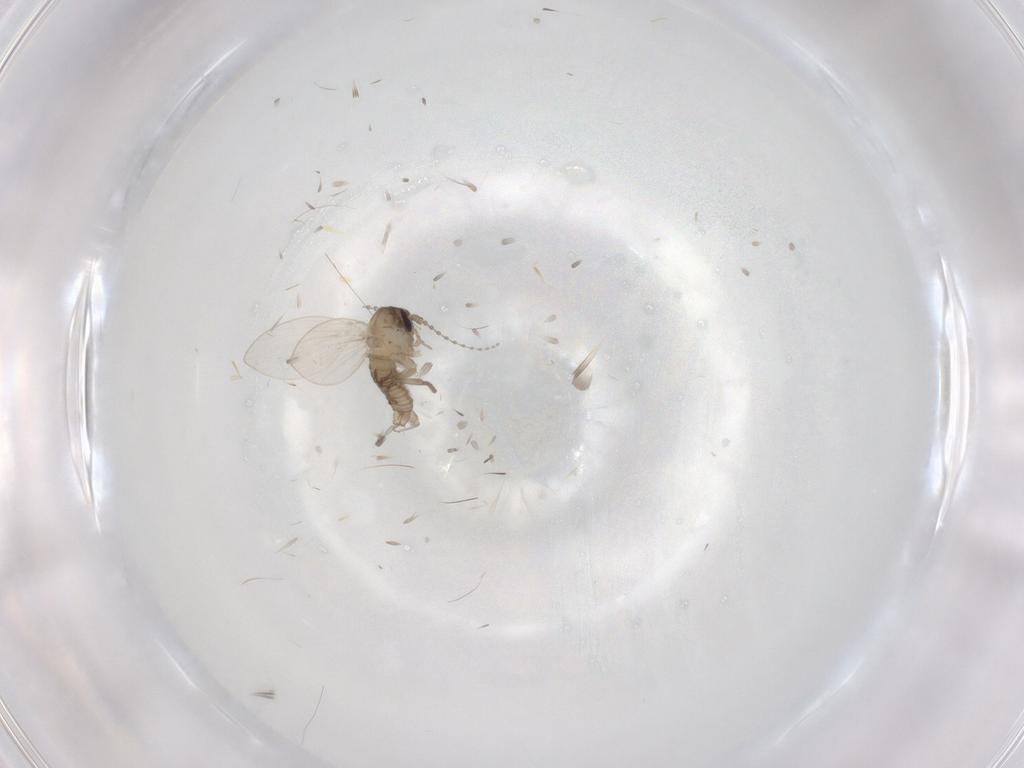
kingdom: Animalia
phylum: Arthropoda
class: Insecta
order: Diptera
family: Psychodidae
